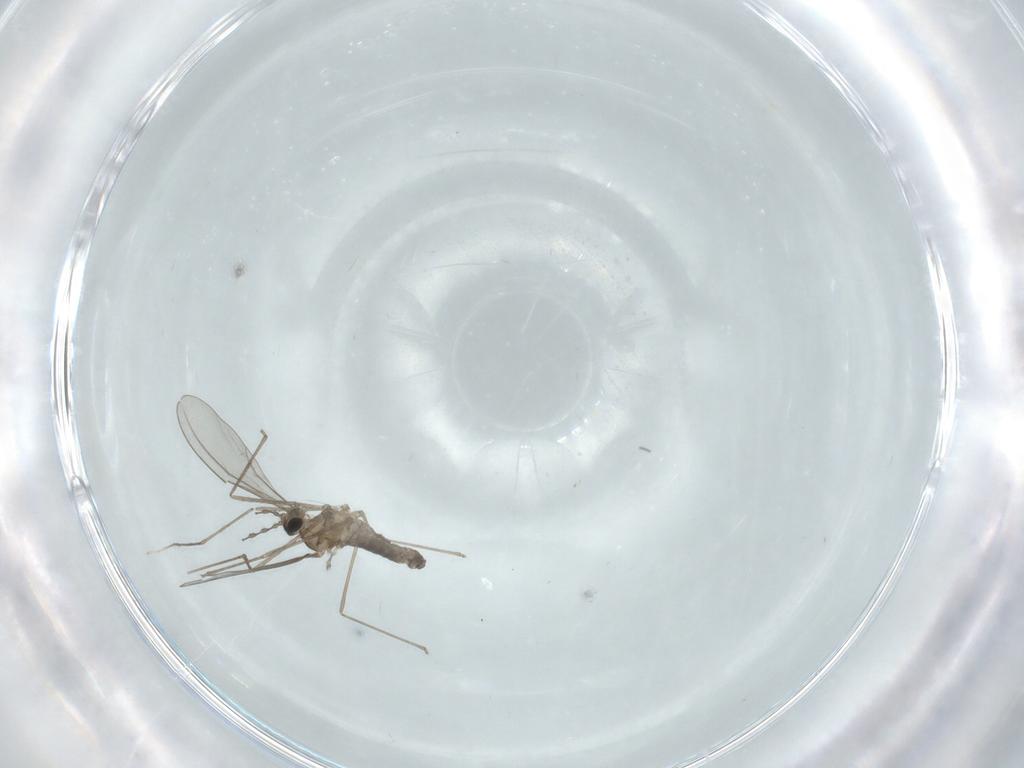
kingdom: Animalia
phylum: Arthropoda
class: Insecta
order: Diptera
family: Cecidomyiidae
